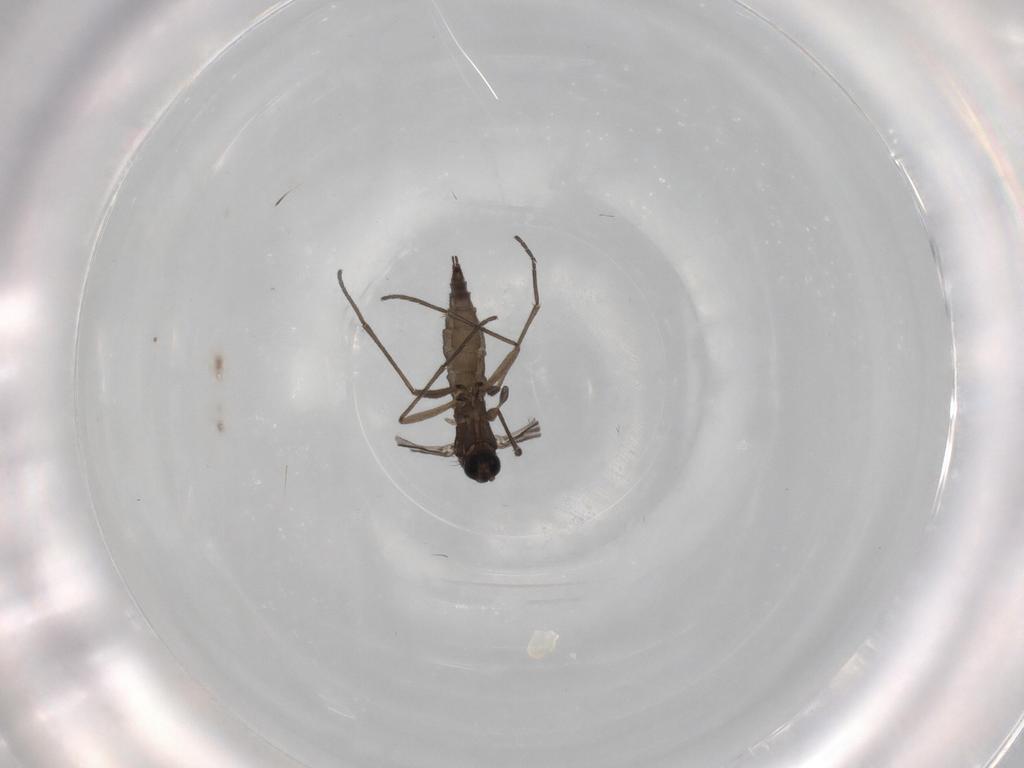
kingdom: Animalia
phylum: Arthropoda
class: Insecta
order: Diptera
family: Sciaridae
